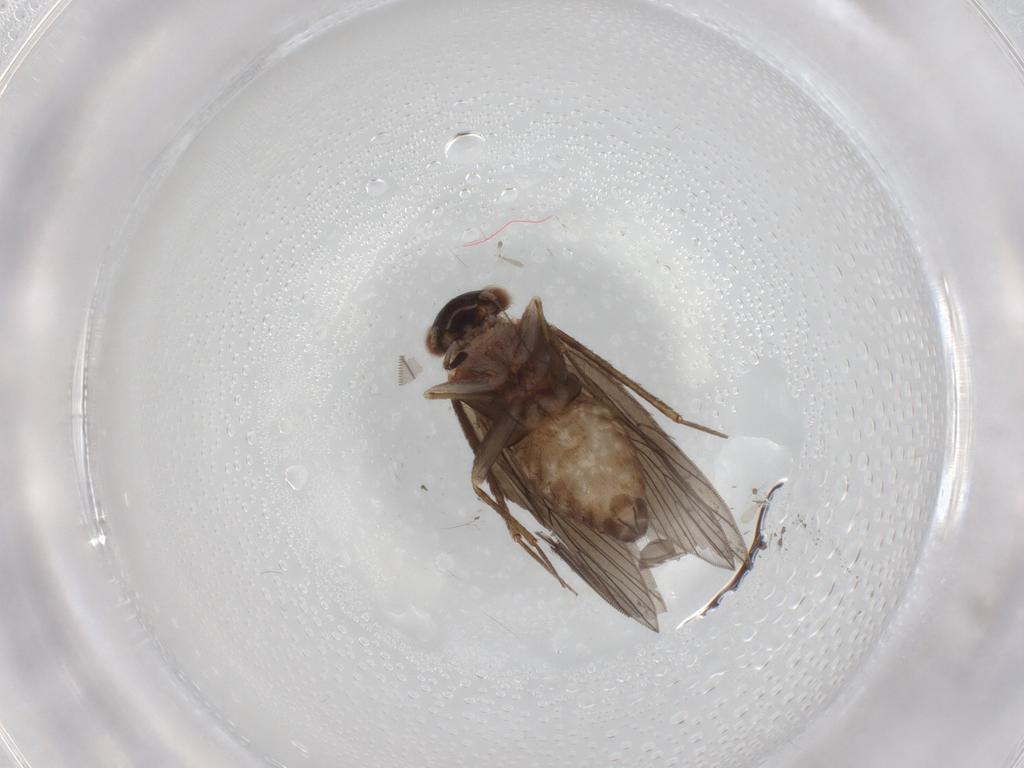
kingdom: Animalia
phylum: Arthropoda
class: Insecta
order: Psocodea
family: Lepidopsocidae
